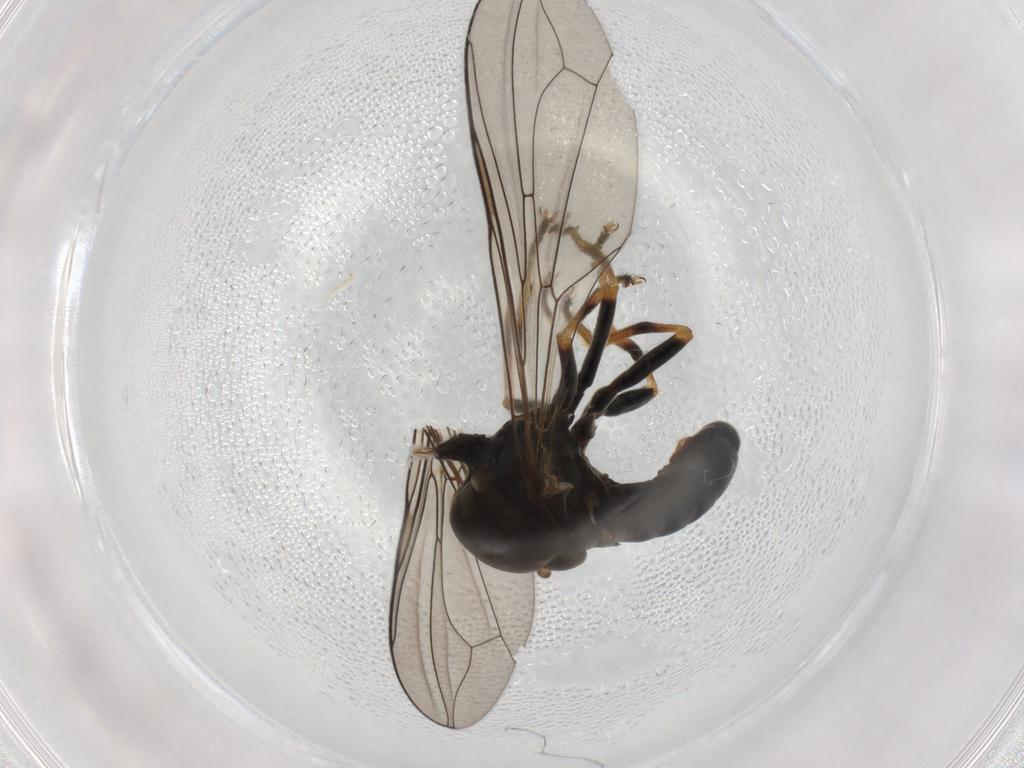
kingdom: Animalia
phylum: Arthropoda
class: Insecta
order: Diptera
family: Pipunculidae
